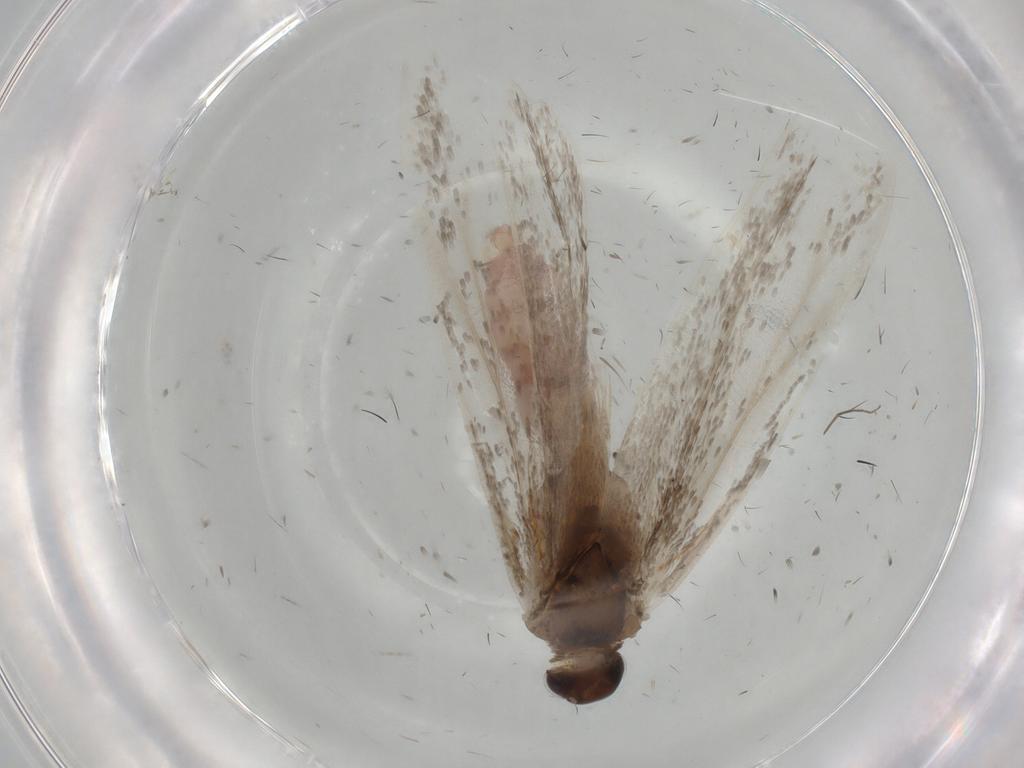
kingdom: Animalia
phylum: Arthropoda
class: Insecta
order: Lepidoptera
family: Gelechiidae
